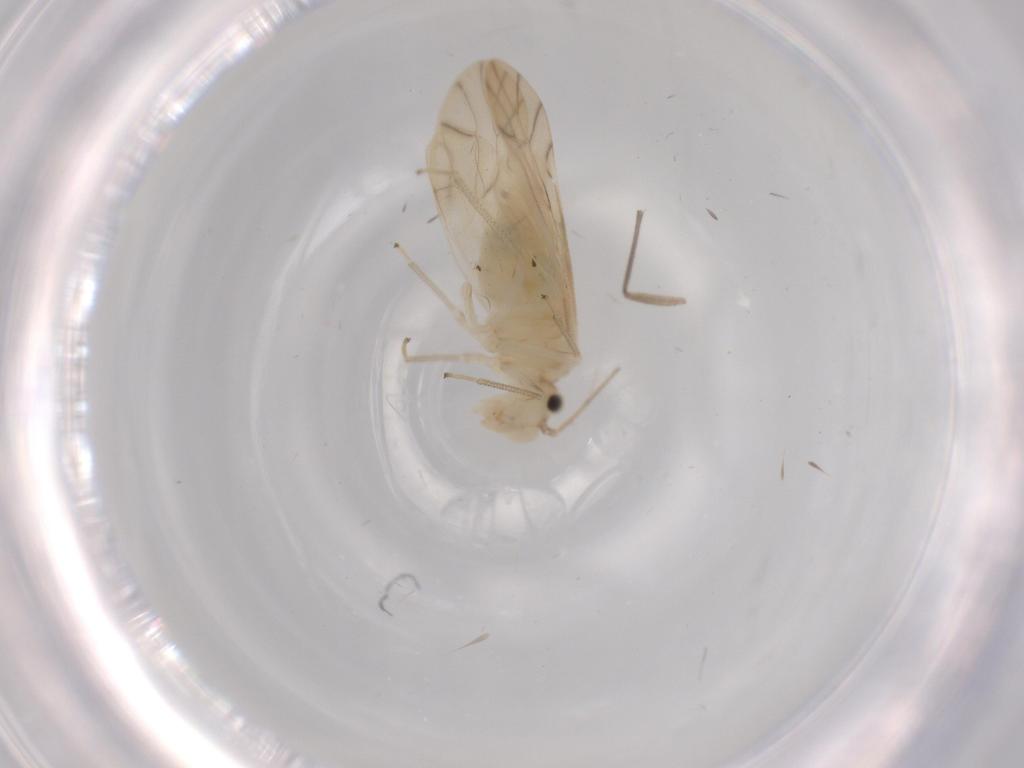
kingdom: Animalia
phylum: Arthropoda
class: Insecta
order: Psocodea
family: Caeciliusidae
